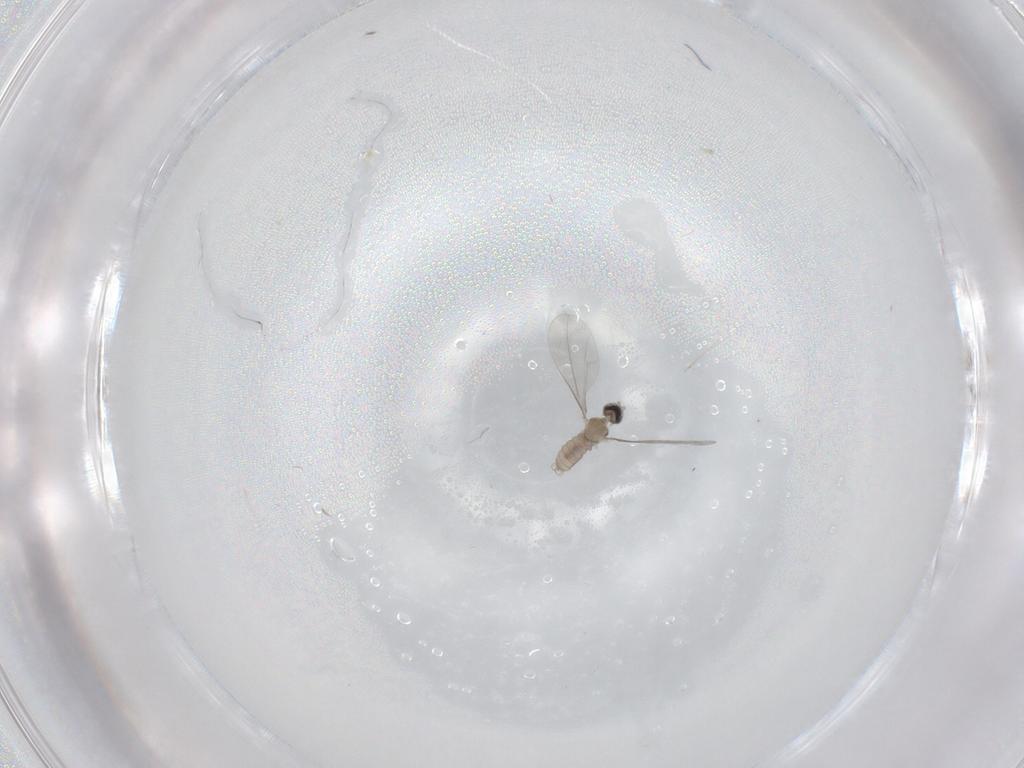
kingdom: Animalia
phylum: Arthropoda
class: Insecta
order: Diptera
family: Cecidomyiidae
